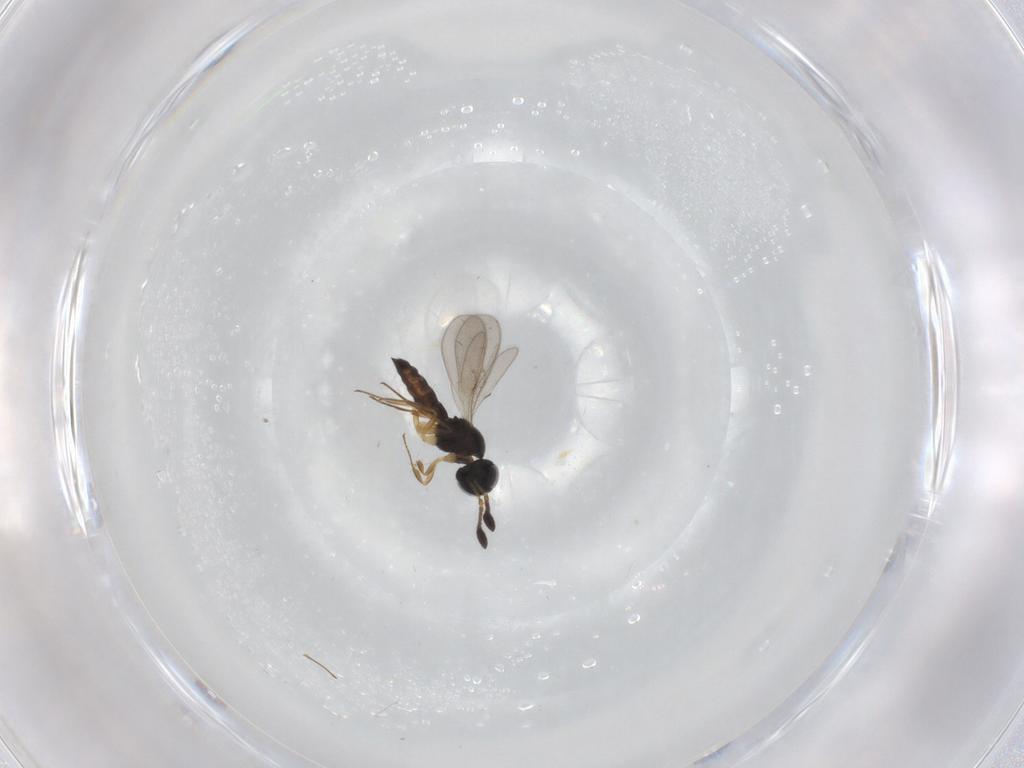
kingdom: Animalia
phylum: Arthropoda
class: Insecta
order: Hymenoptera
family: Scelionidae
